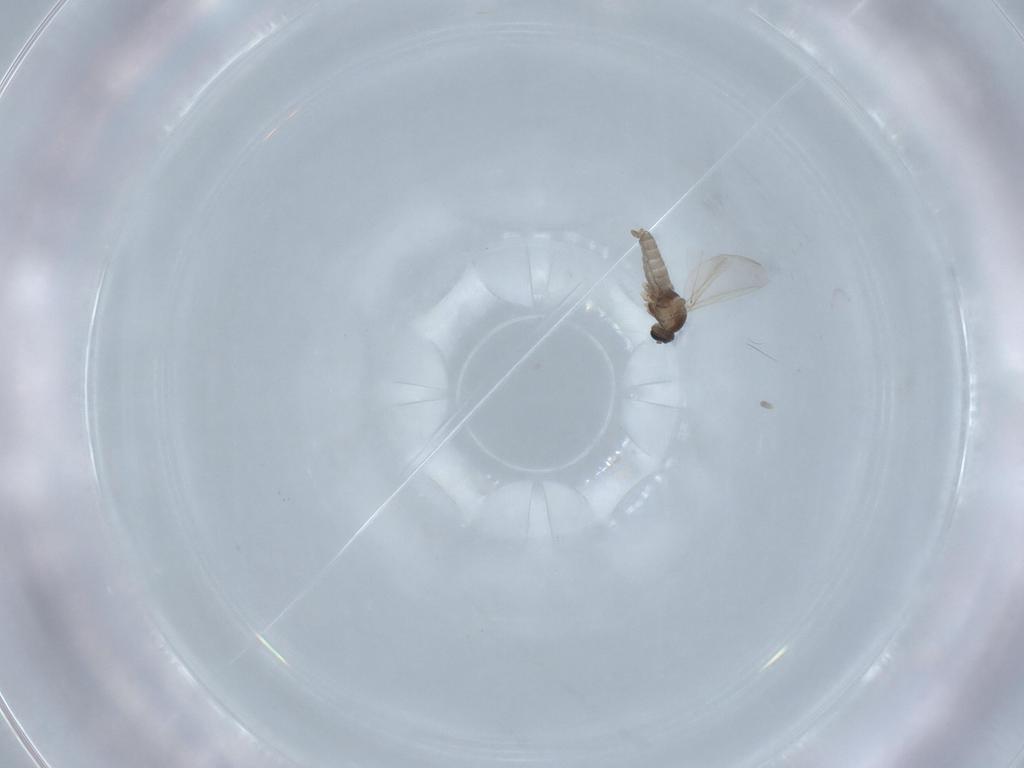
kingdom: Animalia
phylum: Arthropoda
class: Insecta
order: Diptera
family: Cecidomyiidae
